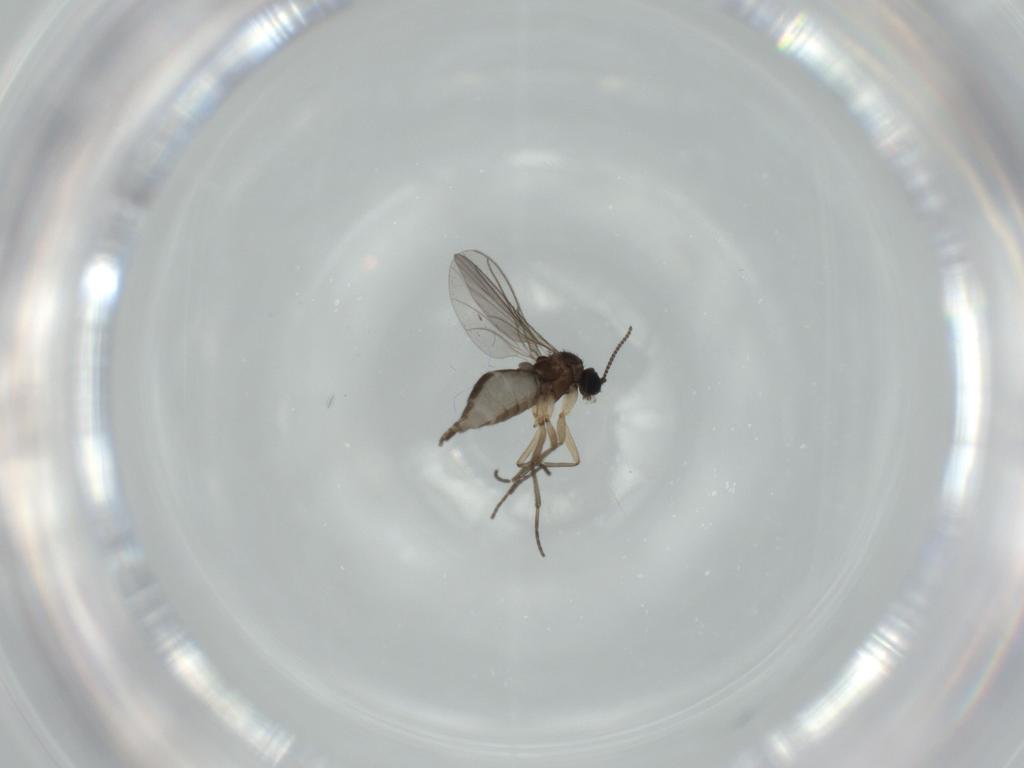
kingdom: Animalia
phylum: Arthropoda
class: Insecta
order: Diptera
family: Sciaridae
